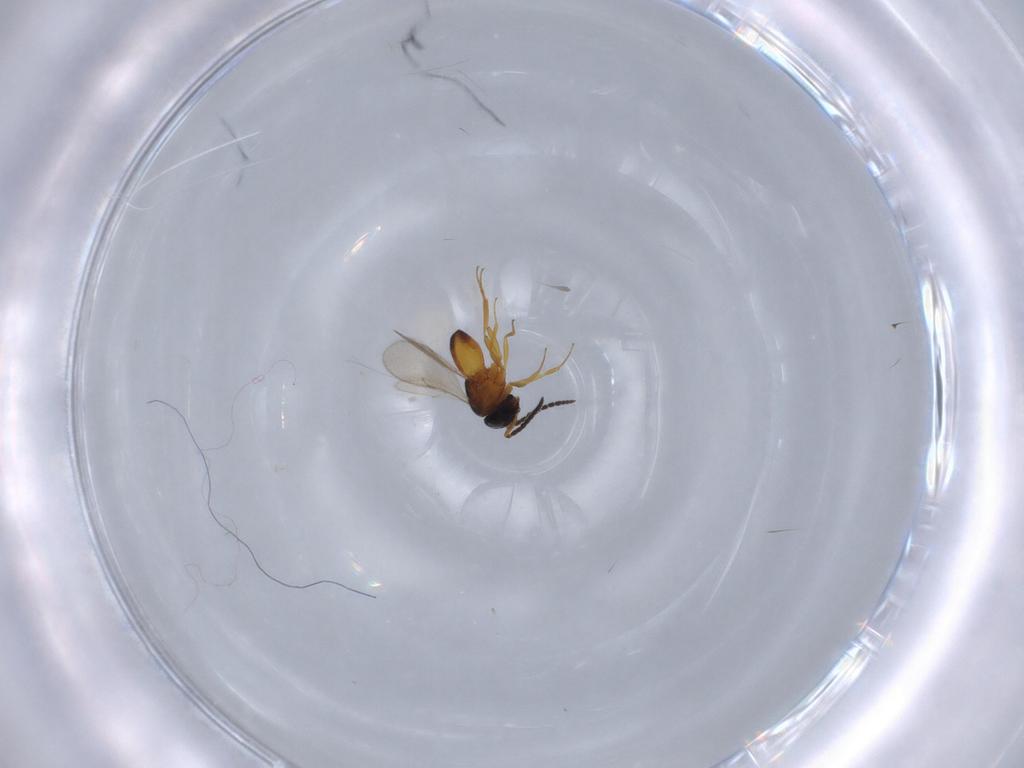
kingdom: Animalia
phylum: Arthropoda
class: Insecta
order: Hymenoptera
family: Scelionidae
